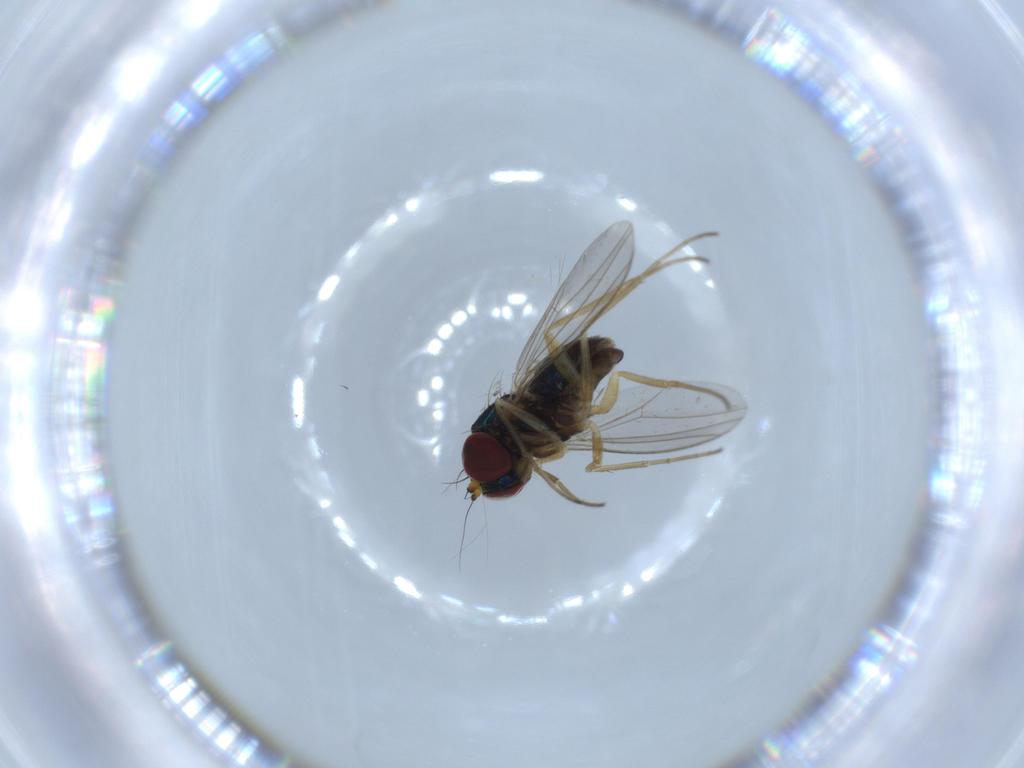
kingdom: Animalia
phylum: Arthropoda
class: Insecta
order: Diptera
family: Dolichopodidae
